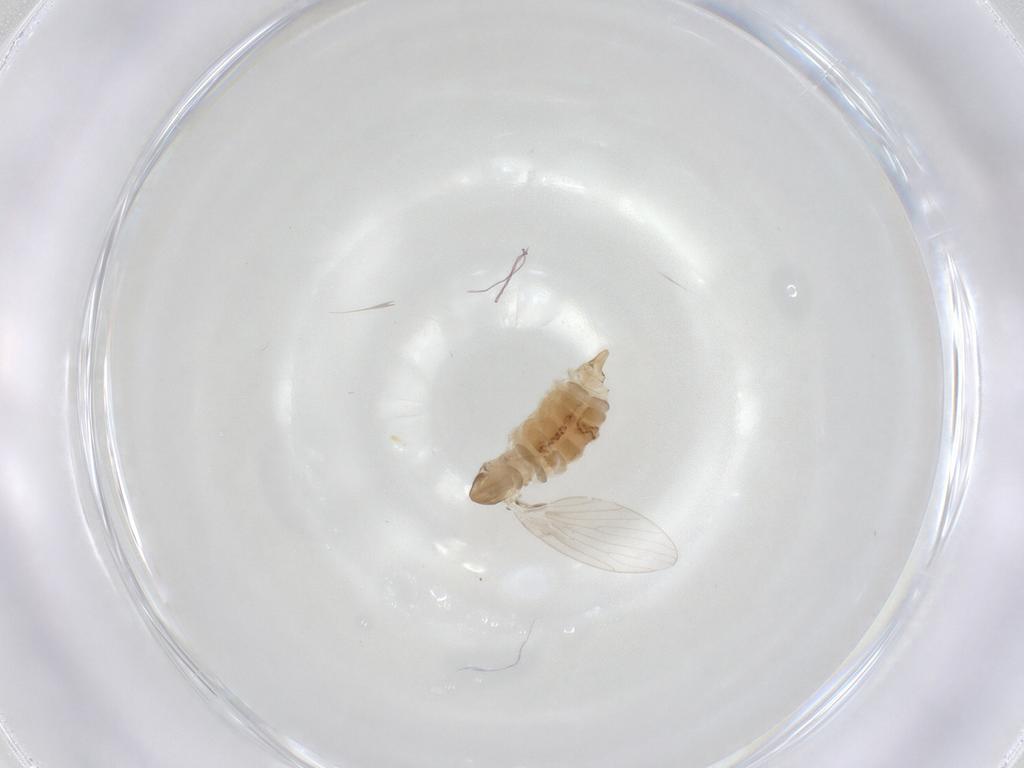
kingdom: Animalia
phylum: Arthropoda
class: Insecta
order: Diptera
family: Psychodidae
